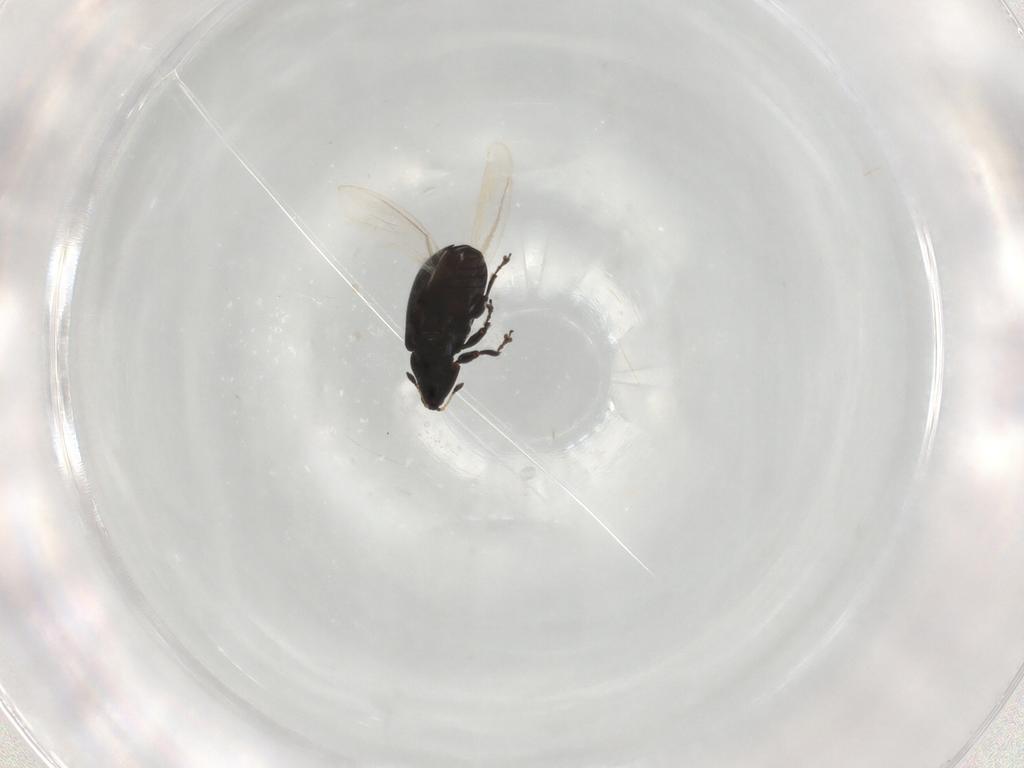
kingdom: Animalia
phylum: Arthropoda
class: Insecta
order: Coleoptera
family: Curculionidae
